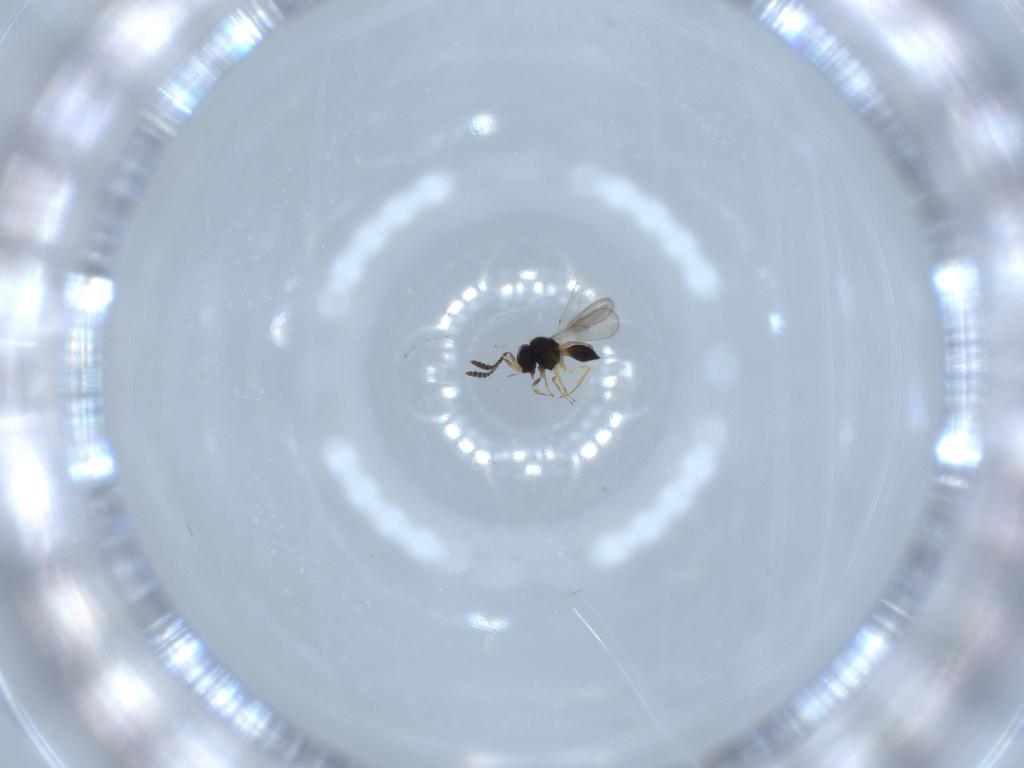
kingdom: Animalia
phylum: Arthropoda
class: Insecta
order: Hymenoptera
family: Scelionidae
